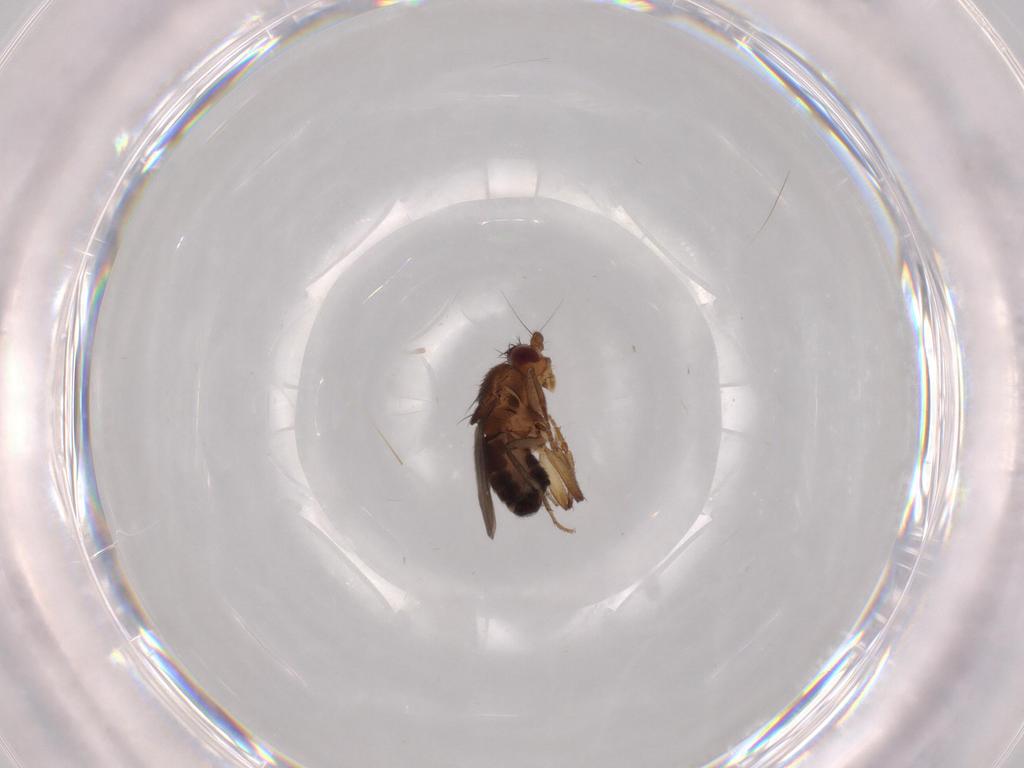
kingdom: Animalia
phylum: Arthropoda
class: Insecta
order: Diptera
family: Sphaeroceridae
